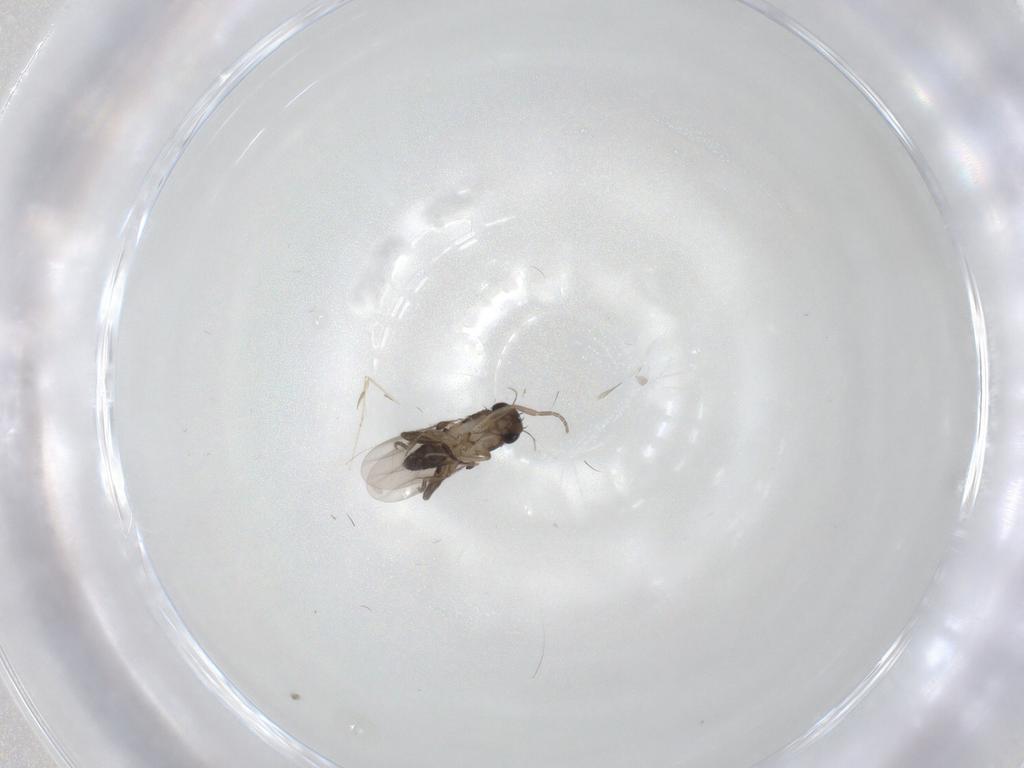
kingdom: Animalia
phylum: Arthropoda
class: Insecta
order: Diptera
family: Phoridae
